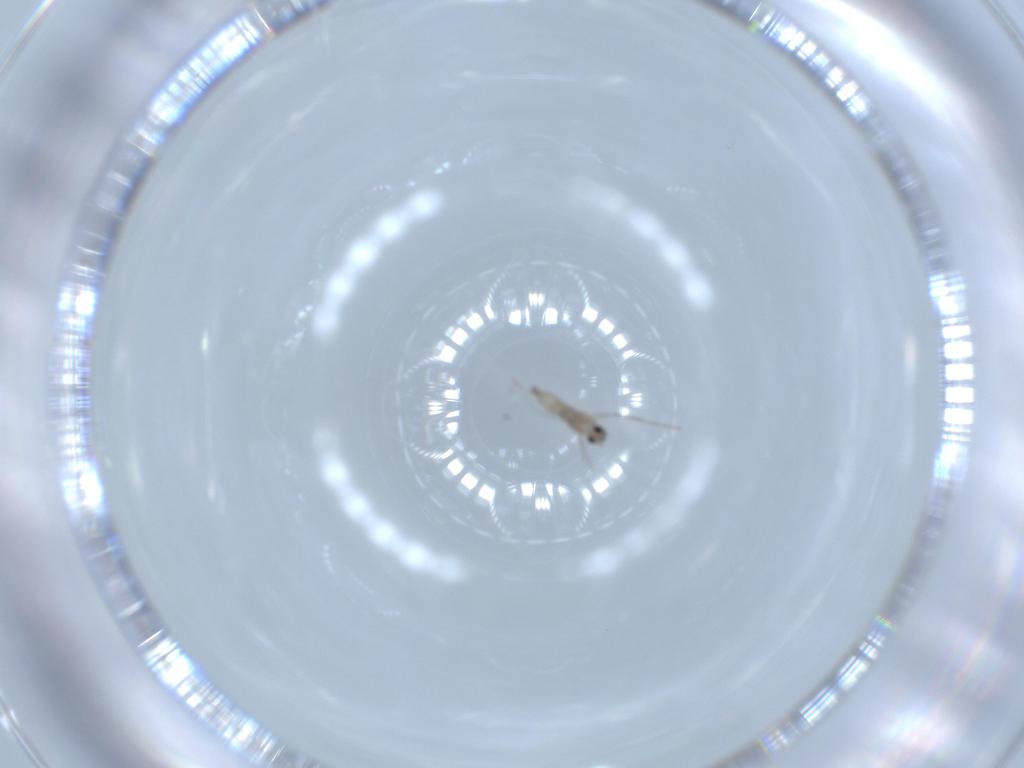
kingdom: Animalia
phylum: Arthropoda
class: Insecta
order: Diptera
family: Cecidomyiidae
